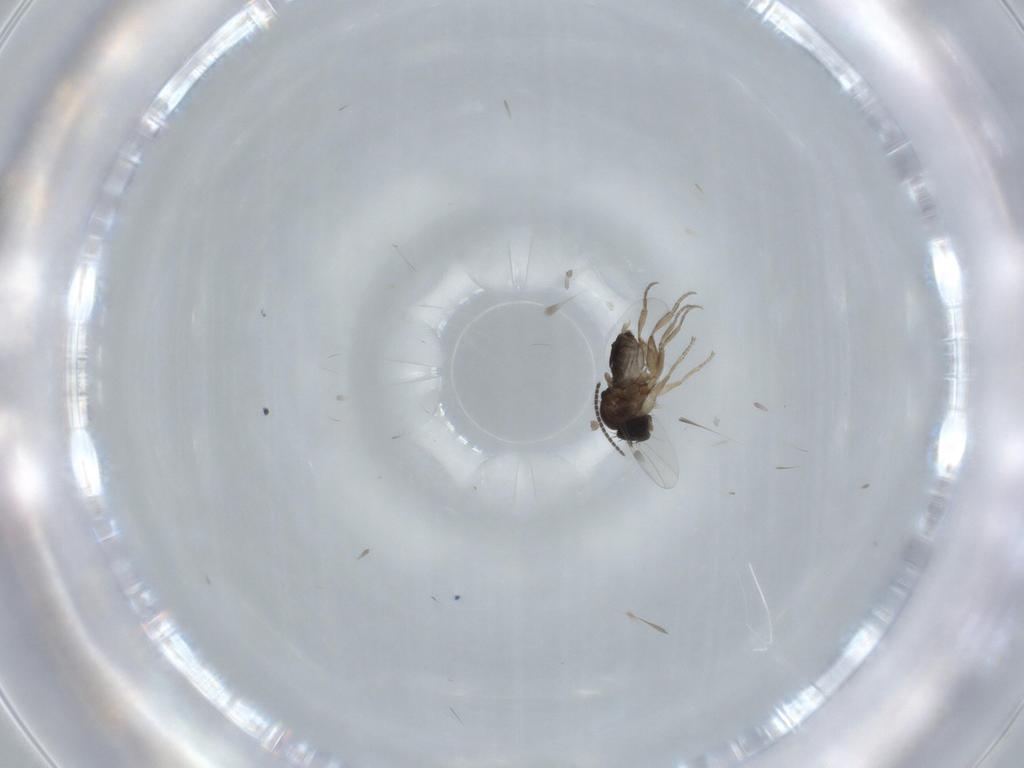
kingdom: Animalia
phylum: Arthropoda
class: Insecta
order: Diptera
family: Sciaridae
